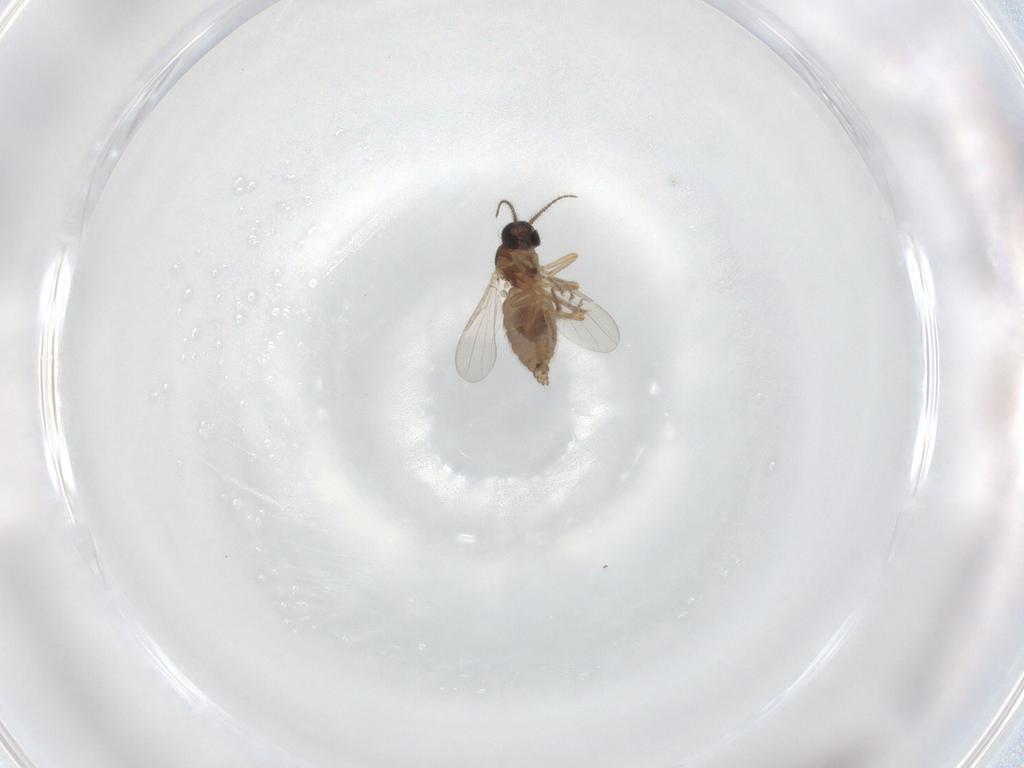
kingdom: Animalia
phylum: Arthropoda
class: Insecta
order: Diptera
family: Ceratopogonidae
